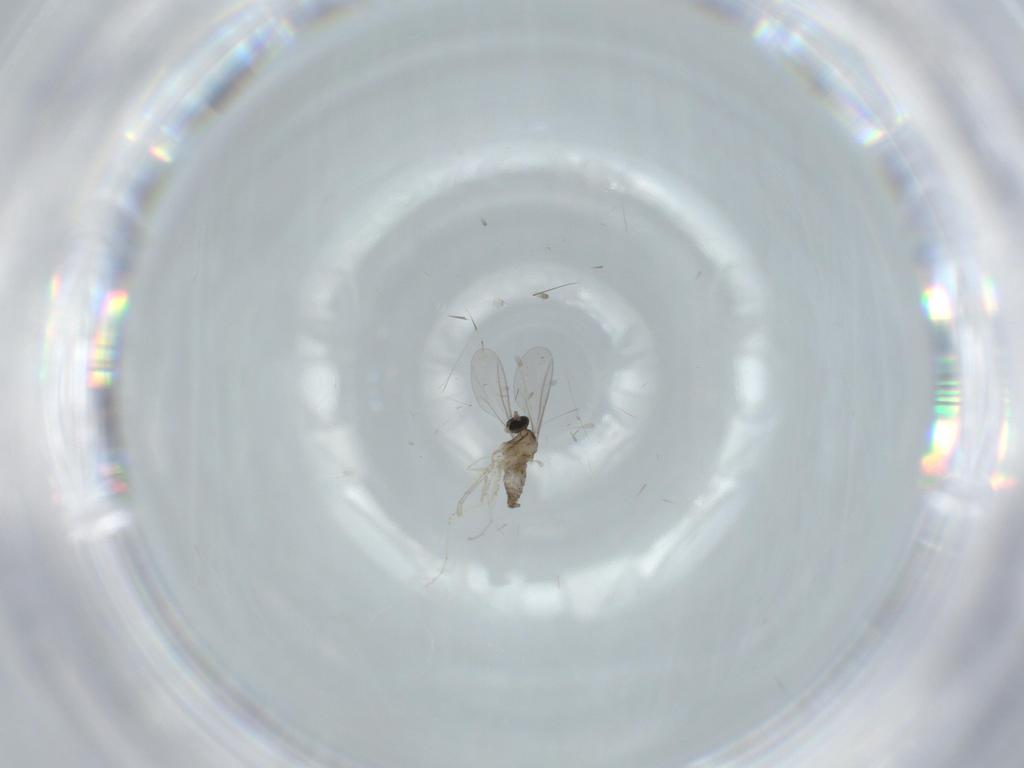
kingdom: Animalia
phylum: Arthropoda
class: Insecta
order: Diptera
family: Cecidomyiidae
